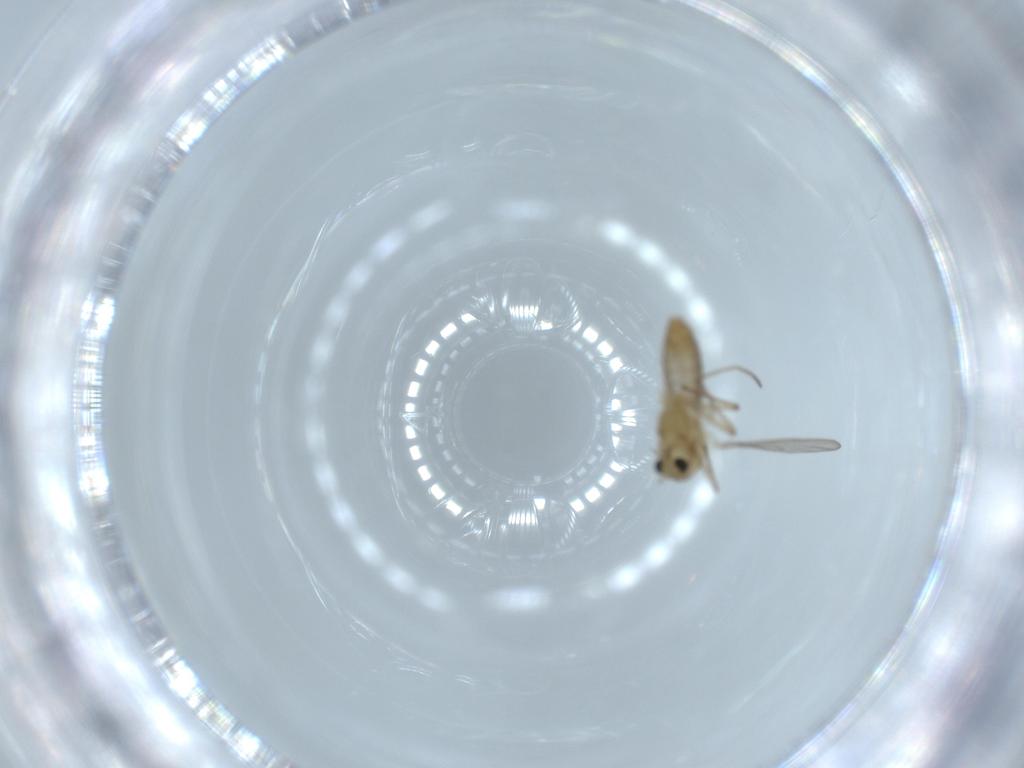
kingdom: Animalia
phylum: Arthropoda
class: Insecta
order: Diptera
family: Chironomidae
